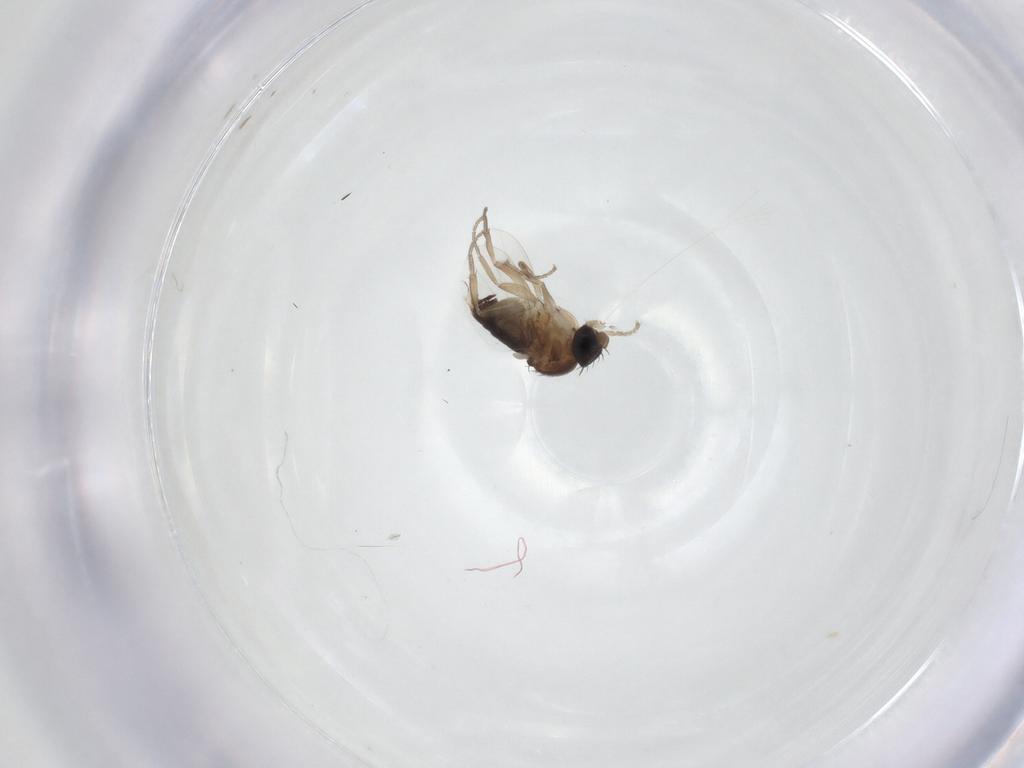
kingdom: Animalia
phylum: Arthropoda
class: Insecta
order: Diptera
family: Phoridae
